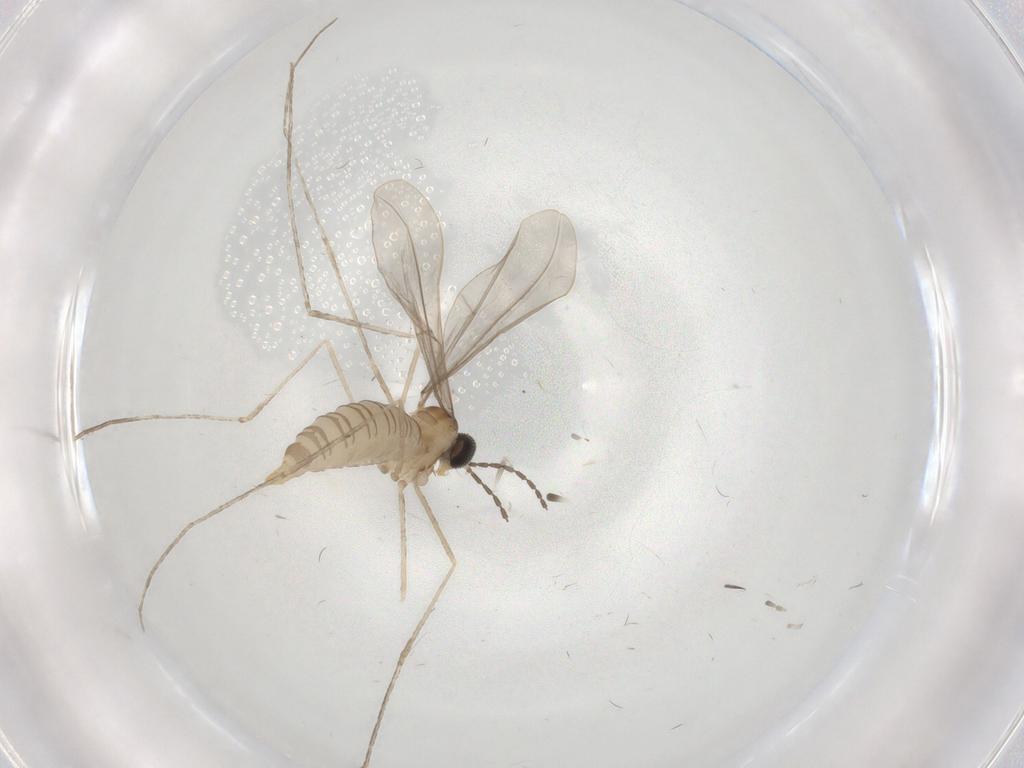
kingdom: Animalia
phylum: Arthropoda
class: Insecta
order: Diptera
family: Cecidomyiidae
